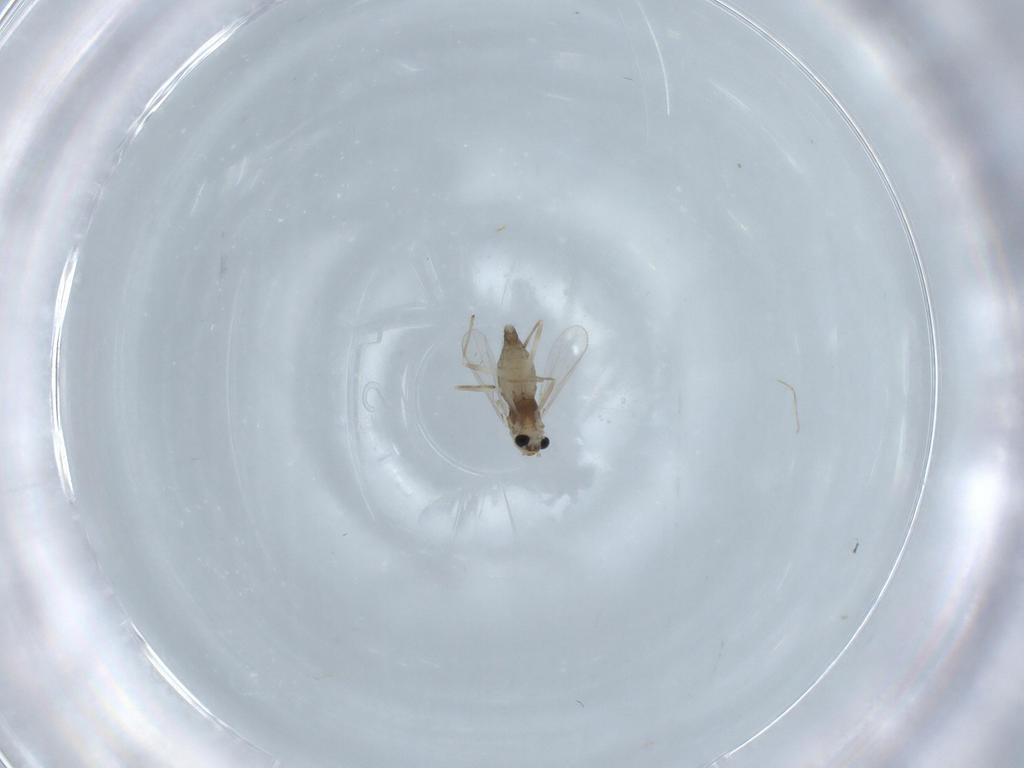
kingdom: Animalia
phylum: Arthropoda
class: Insecta
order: Diptera
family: Chironomidae
